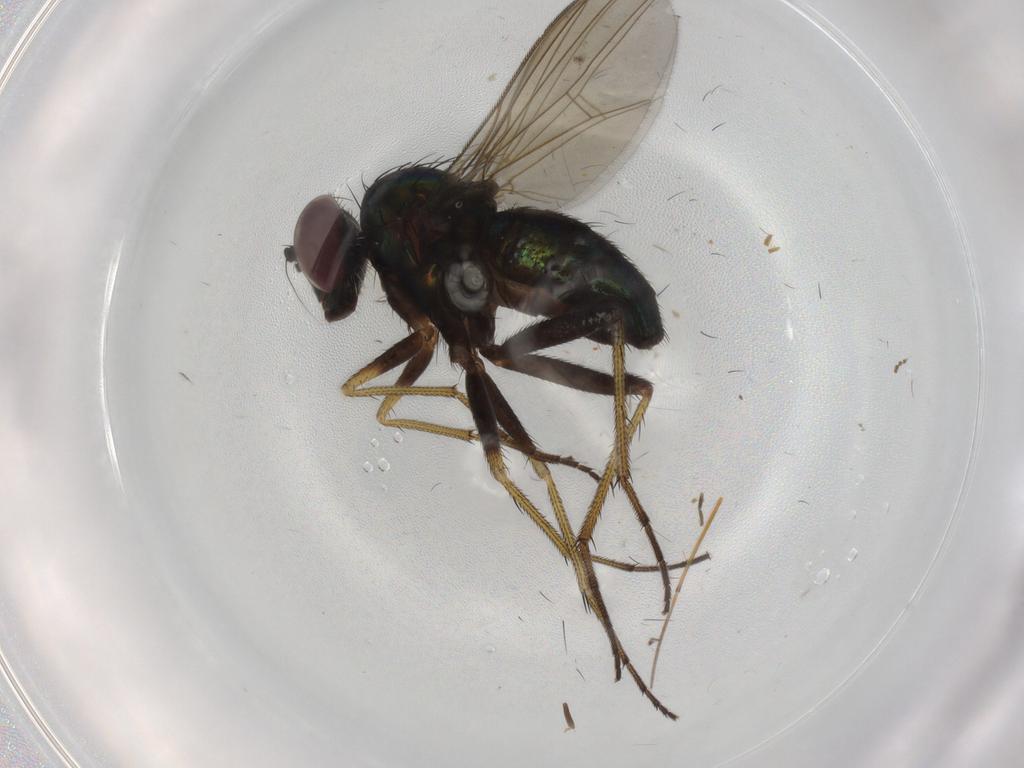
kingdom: Animalia
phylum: Arthropoda
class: Insecta
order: Diptera
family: Dolichopodidae
